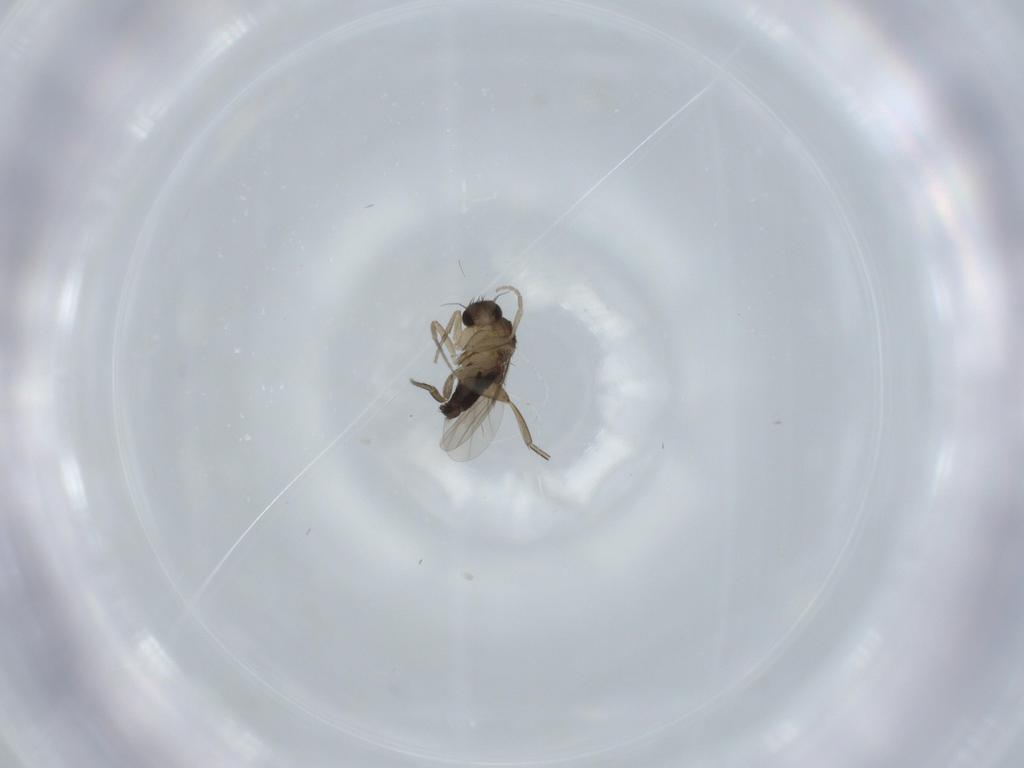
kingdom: Animalia
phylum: Arthropoda
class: Insecta
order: Diptera
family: Phoridae
